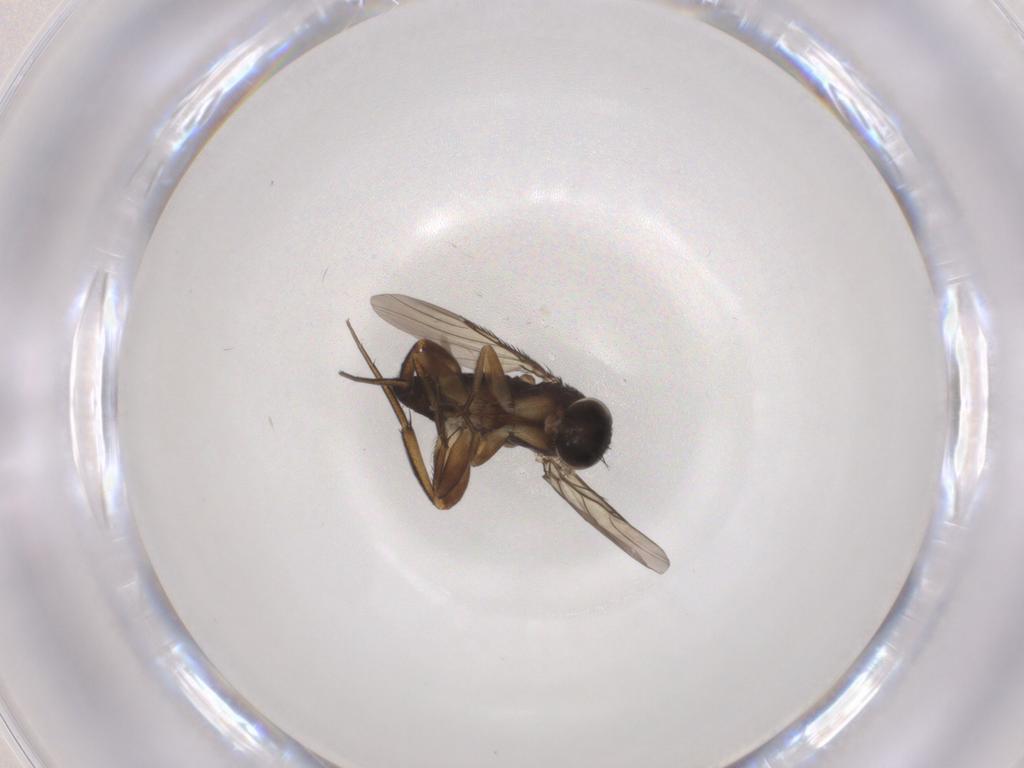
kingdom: Animalia
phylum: Arthropoda
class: Insecta
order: Diptera
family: Phoridae
